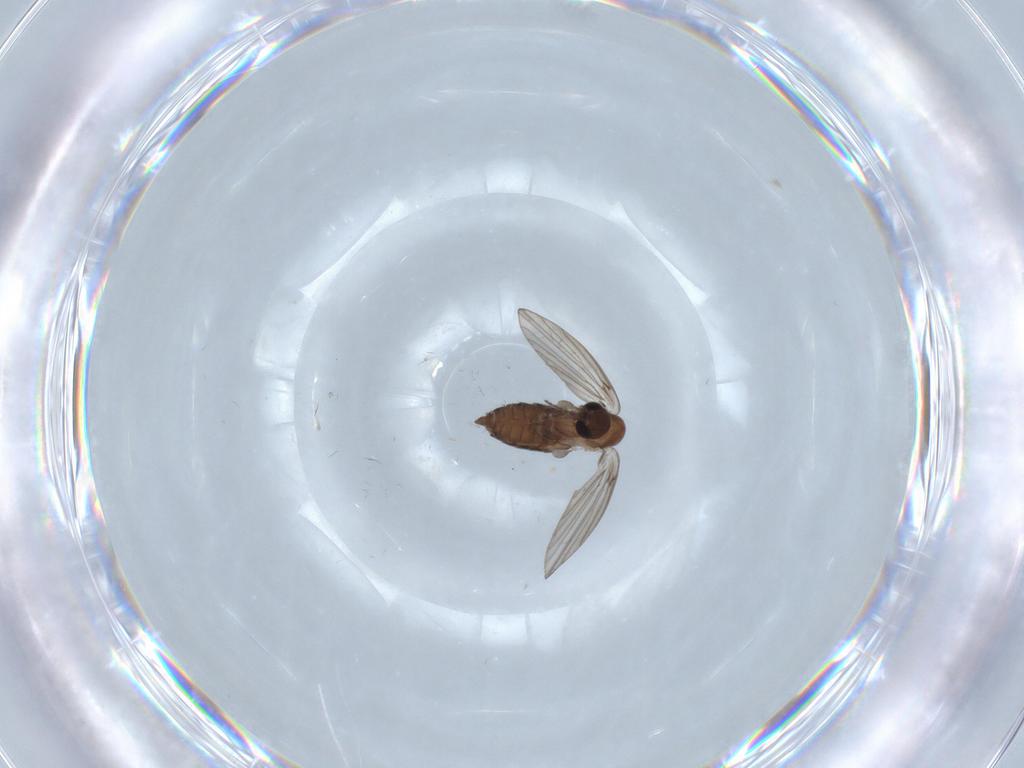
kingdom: Animalia
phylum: Arthropoda
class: Insecta
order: Diptera
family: Psychodidae
